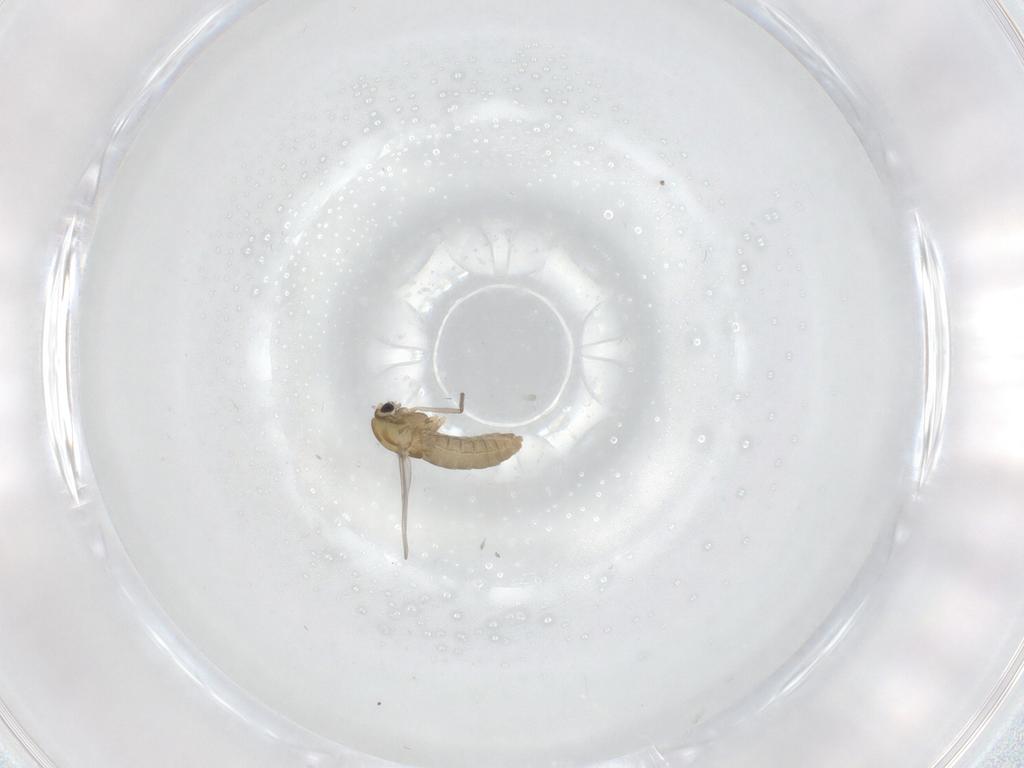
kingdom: Animalia
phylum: Arthropoda
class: Insecta
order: Diptera
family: Chironomidae
